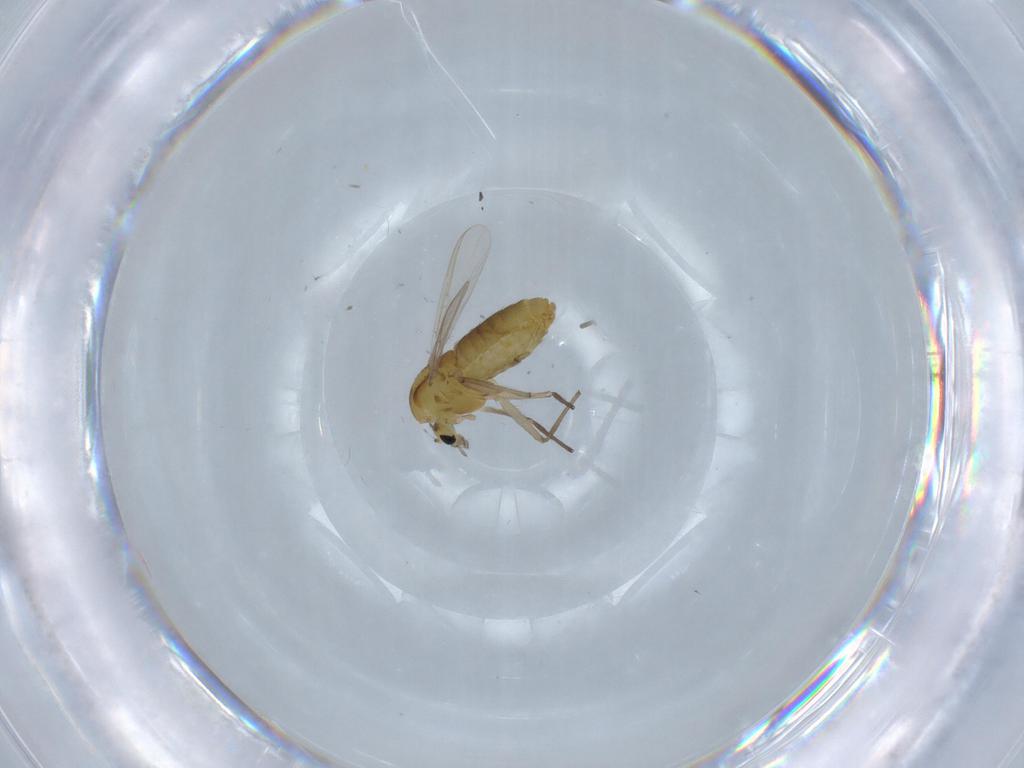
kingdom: Animalia
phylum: Arthropoda
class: Insecta
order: Diptera
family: Chironomidae
